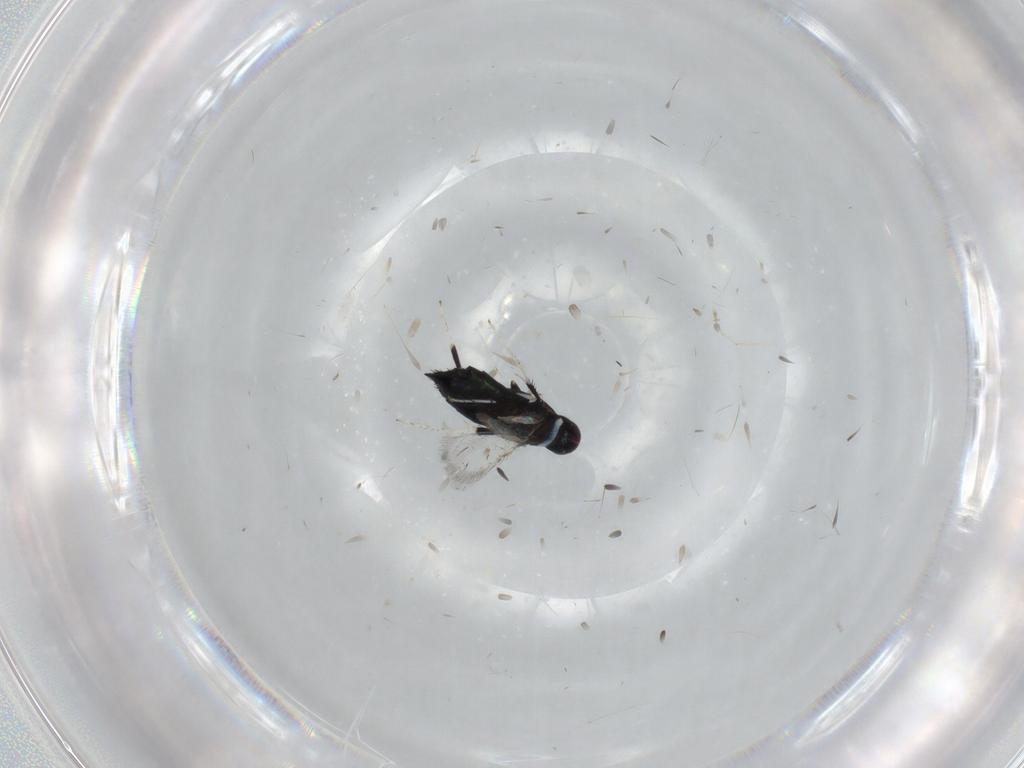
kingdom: Animalia
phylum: Arthropoda
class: Insecta
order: Hymenoptera
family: Signiphoridae
